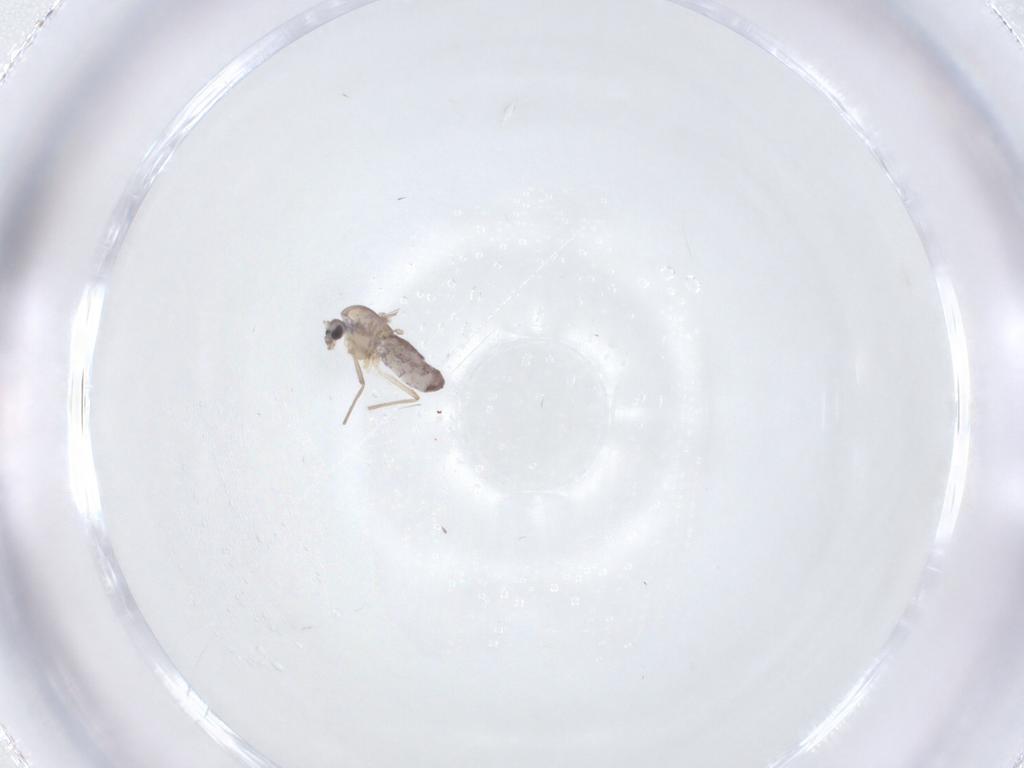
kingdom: Animalia
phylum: Arthropoda
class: Insecta
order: Diptera
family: Chironomidae
